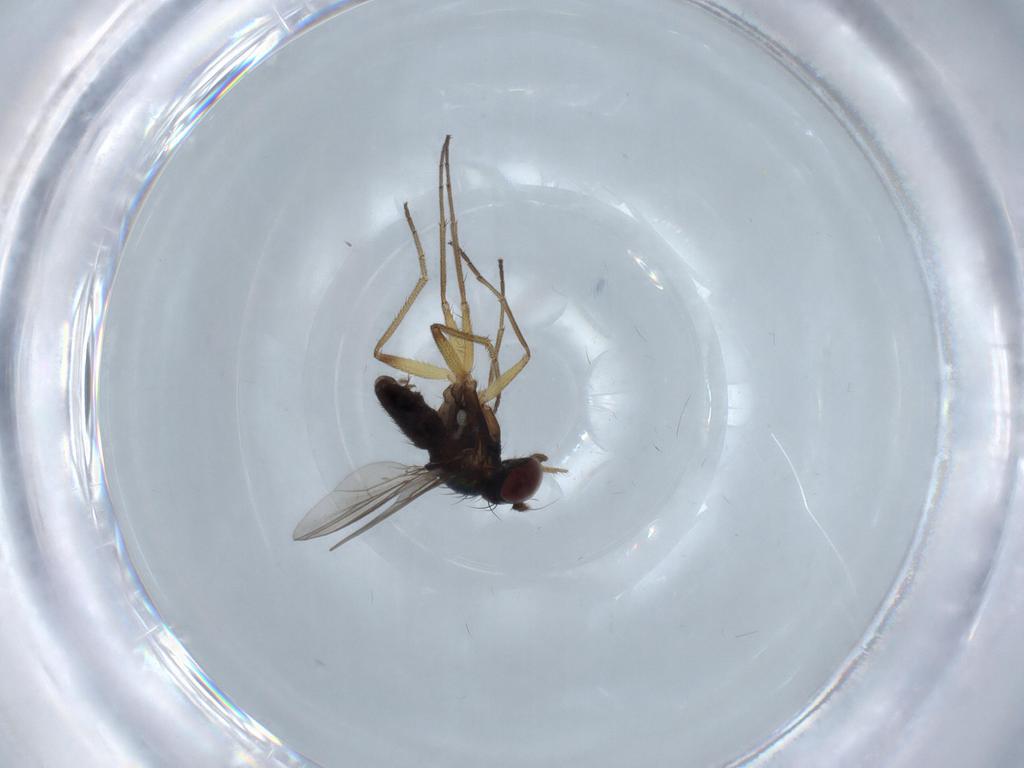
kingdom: Animalia
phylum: Arthropoda
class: Insecta
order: Diptera
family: Dolichopodidae
